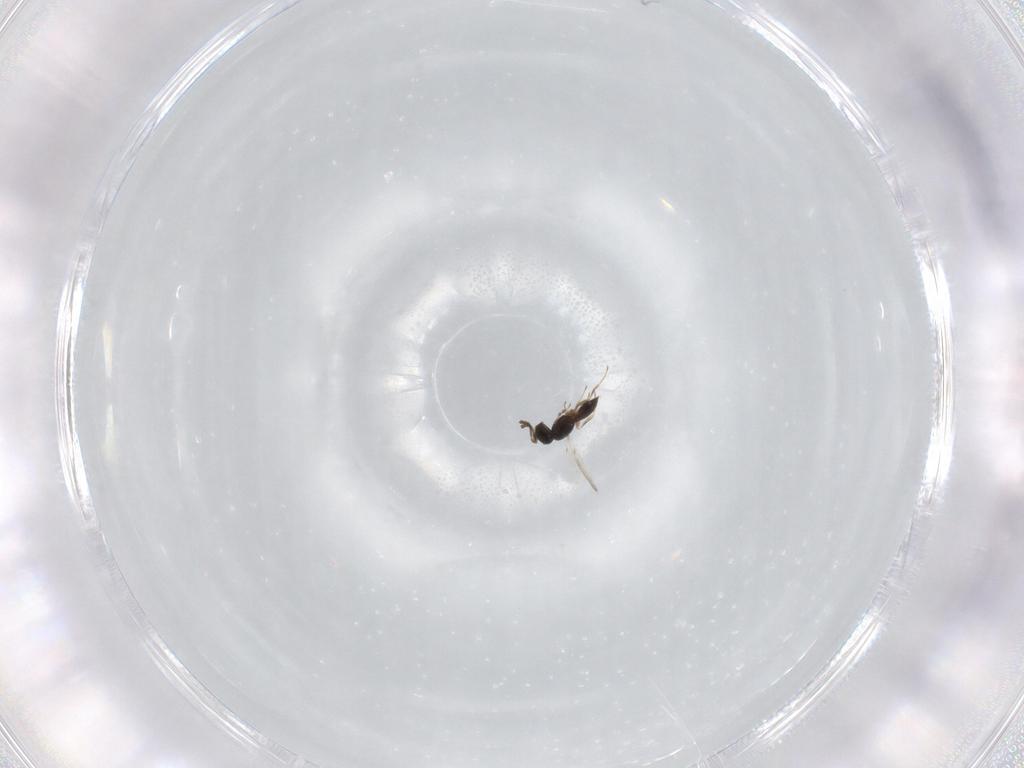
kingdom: Animalia
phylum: Arthropoda
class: Insecta
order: Hymenoptera
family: Scelionidae
